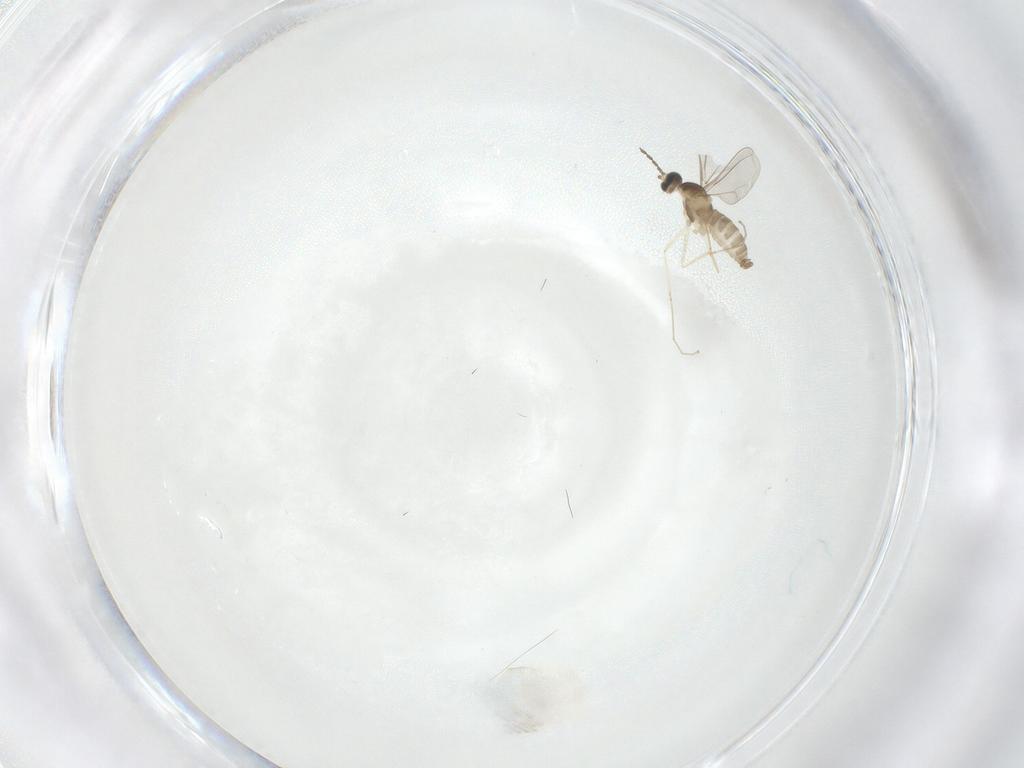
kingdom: Animalia
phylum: Arthropoda
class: Insecta
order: Diptera
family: Cecidomyiidae
